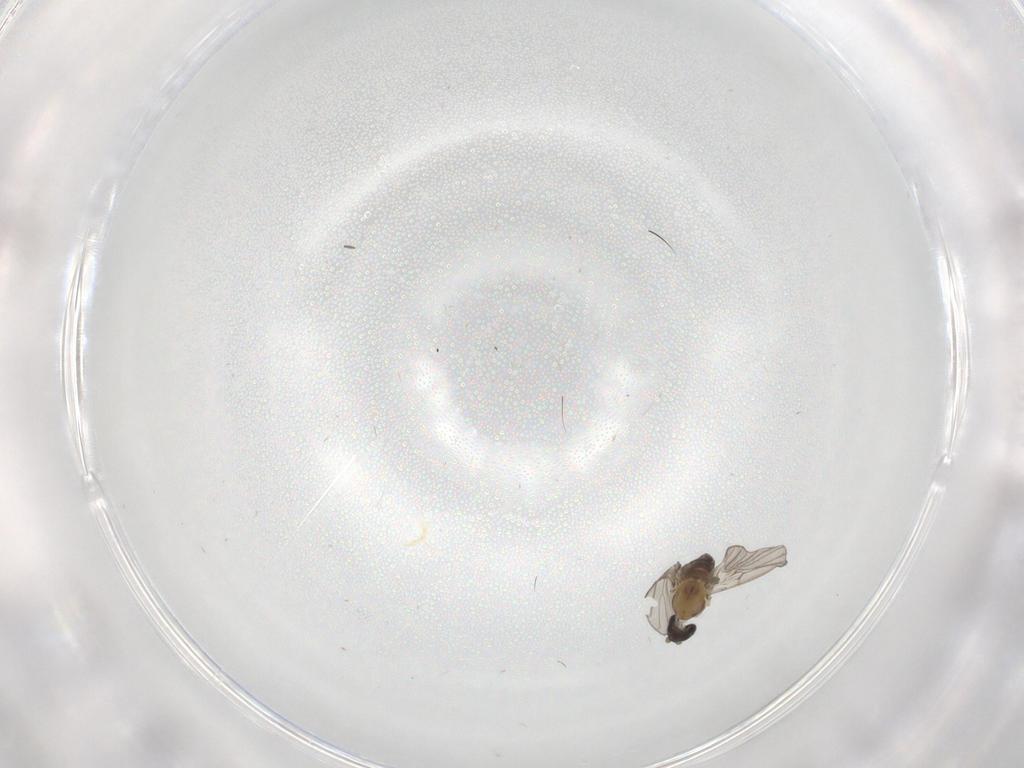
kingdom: Animalia
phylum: Arthropoda
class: Insecta
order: Diptera
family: Psychodidae
